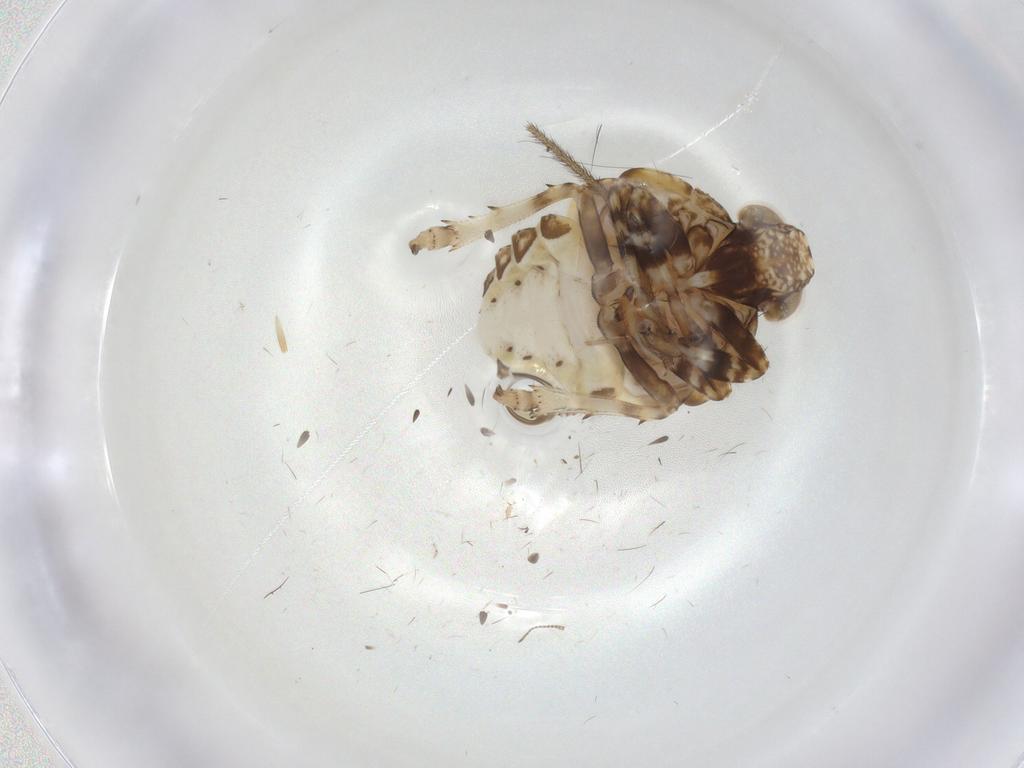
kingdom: Animalia
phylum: Arthropoda
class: Insecta
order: Hemiptera
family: Issidae
